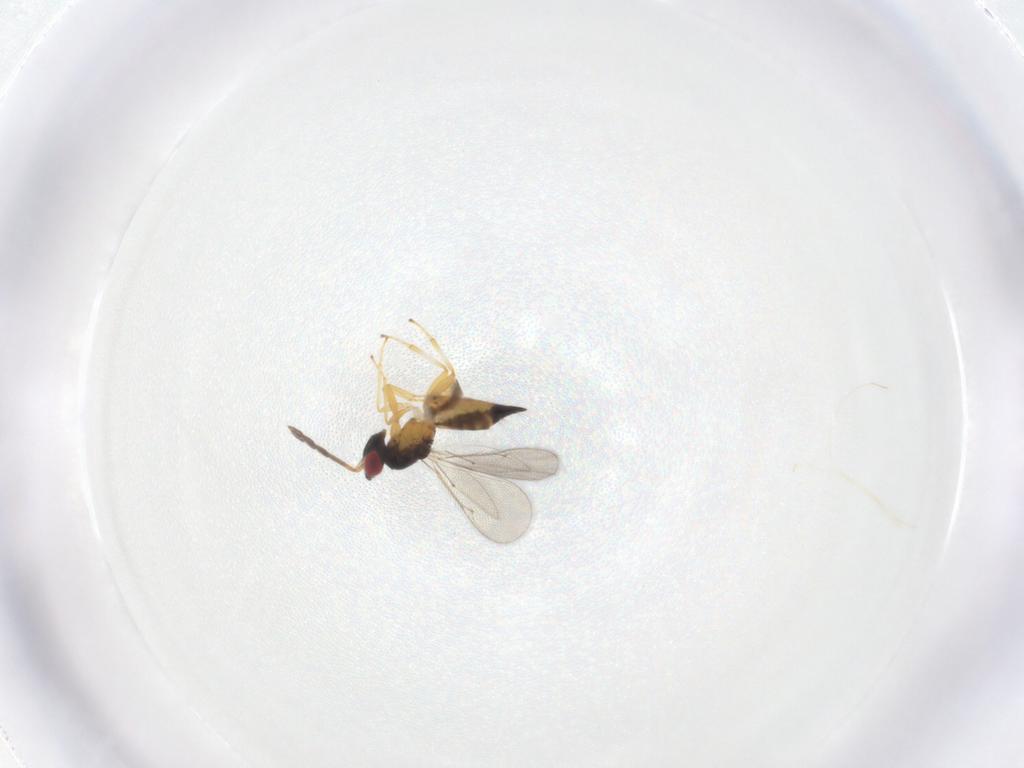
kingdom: Animalia
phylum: Arthropoda
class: Insecta
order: Hymenoptera
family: Eulophidae
